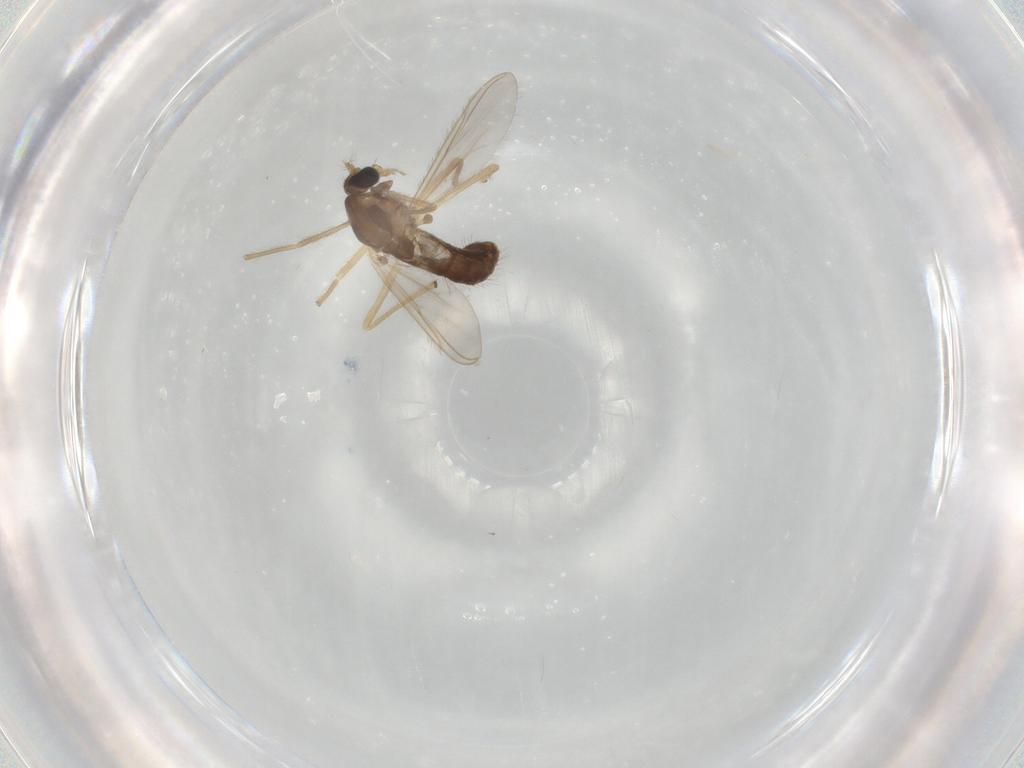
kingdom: Animalia
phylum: Arthropoda
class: Insecta
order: Diptera
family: Chironomidae
